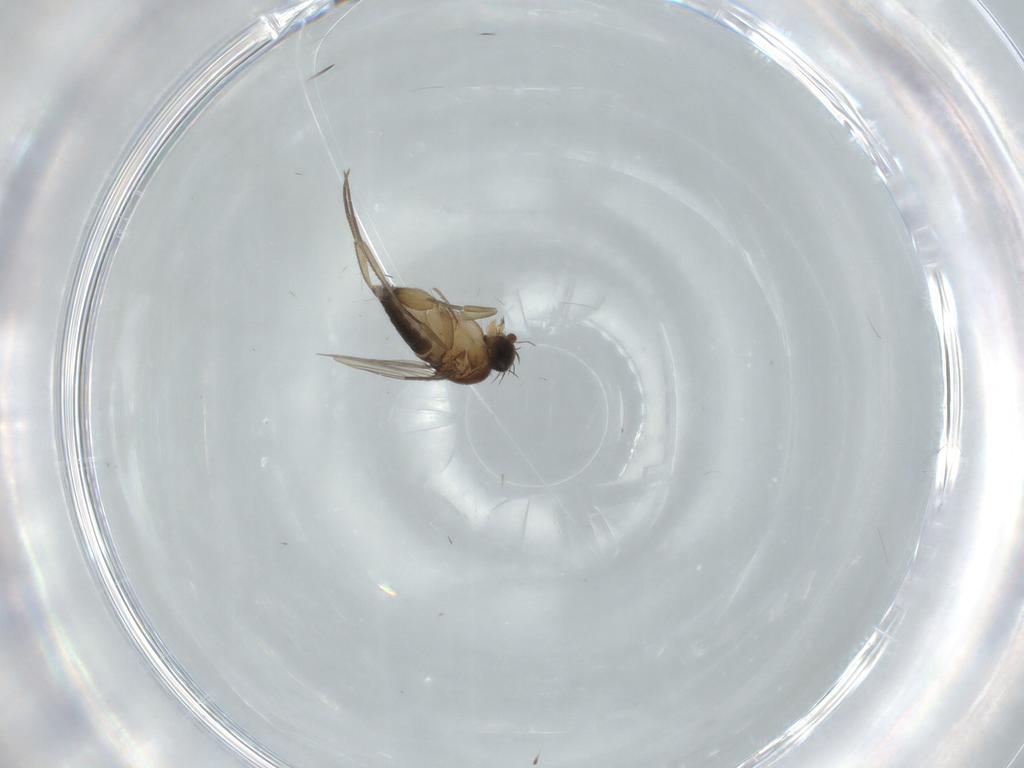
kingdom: Animalia
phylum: Arthropoda
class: Insecta
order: Diptera
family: Phoridae
